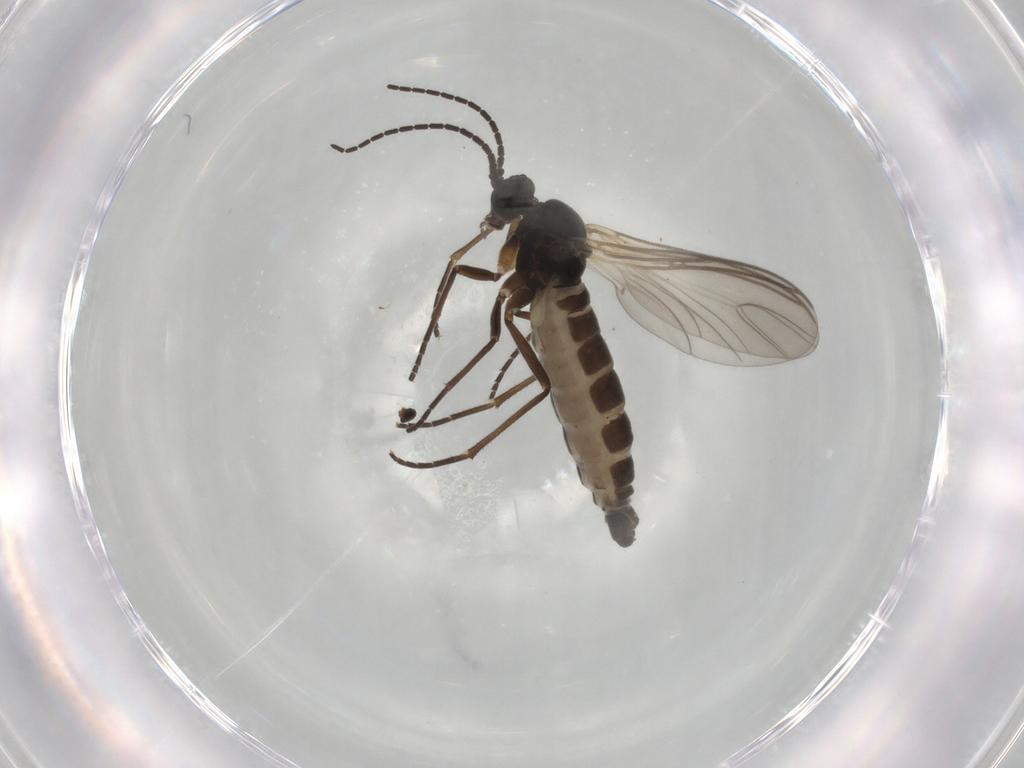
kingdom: Animalia
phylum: Arthropoda
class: Insecta
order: Diptera
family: Sciaridae
